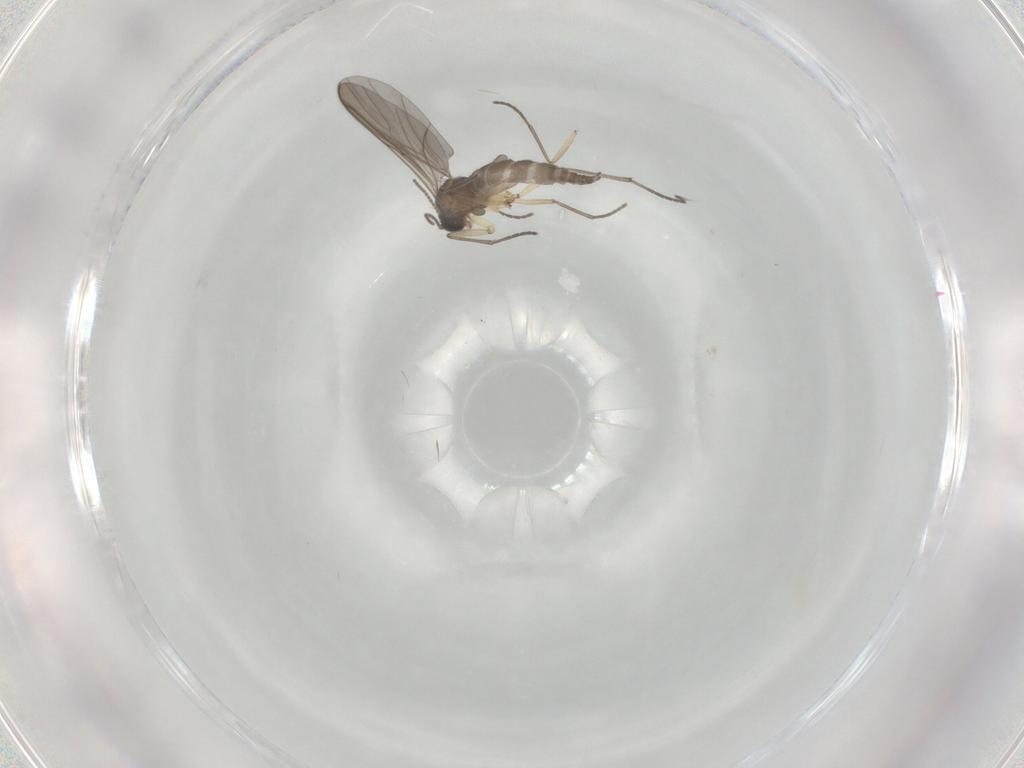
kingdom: Animalia
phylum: Arthropoda
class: Insecta
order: Diptera
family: Sciaridae
